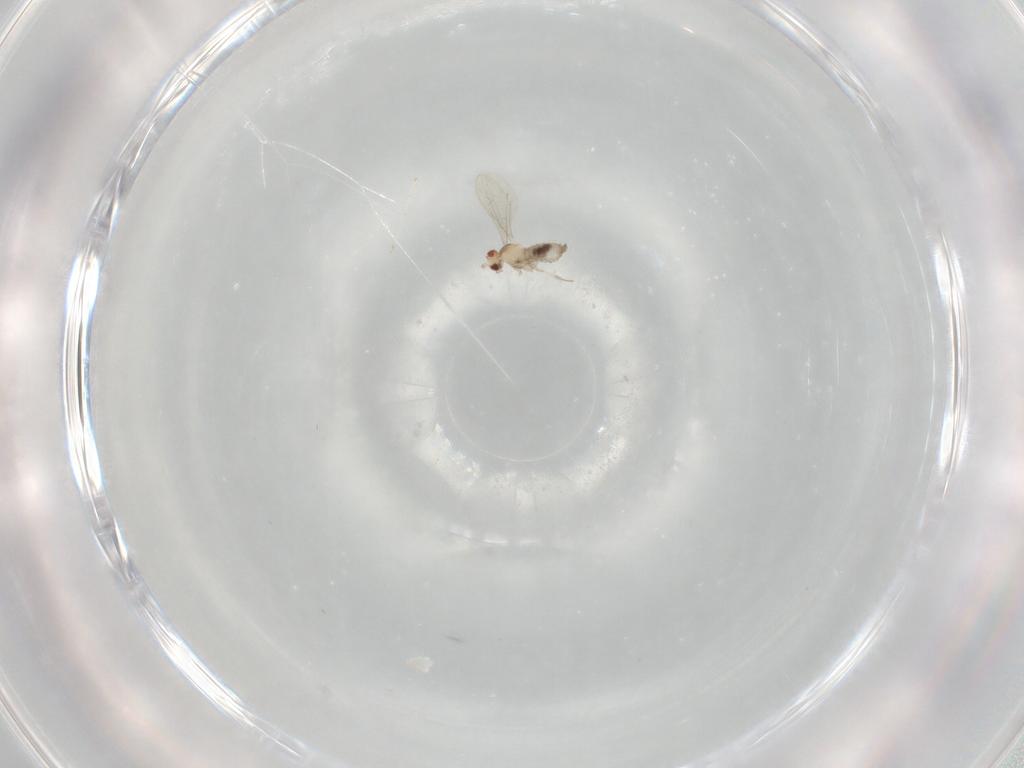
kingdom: Animalia
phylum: Arthropoda
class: Insecta
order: Diptera
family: Cecidomyiidae
